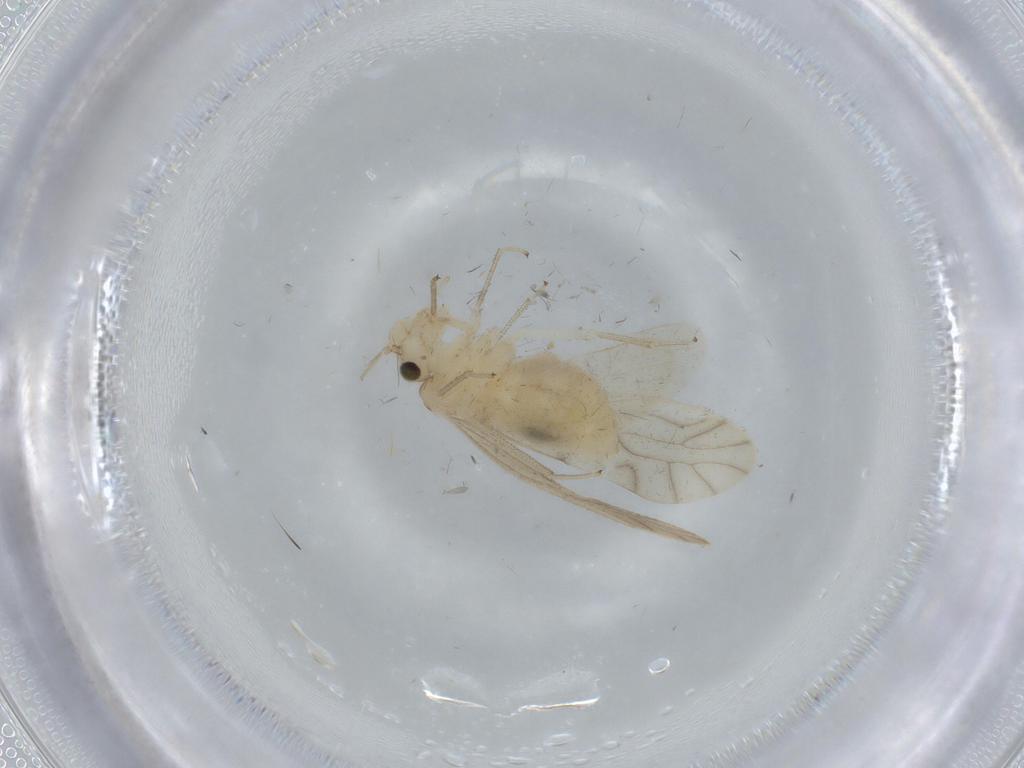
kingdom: Animalia
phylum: Arthropoda
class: Insecta
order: Psocodea
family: Caeciliusidae
